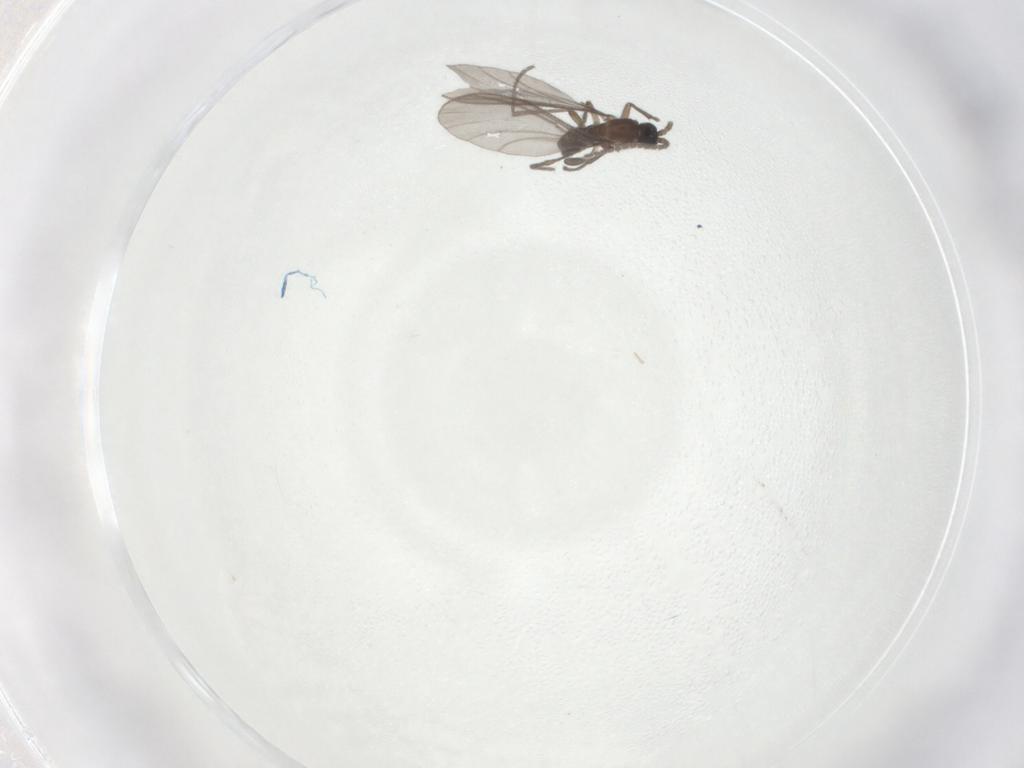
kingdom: Animalia
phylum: Arthropoda
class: Insecta
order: Diptera
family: Sciaridae
